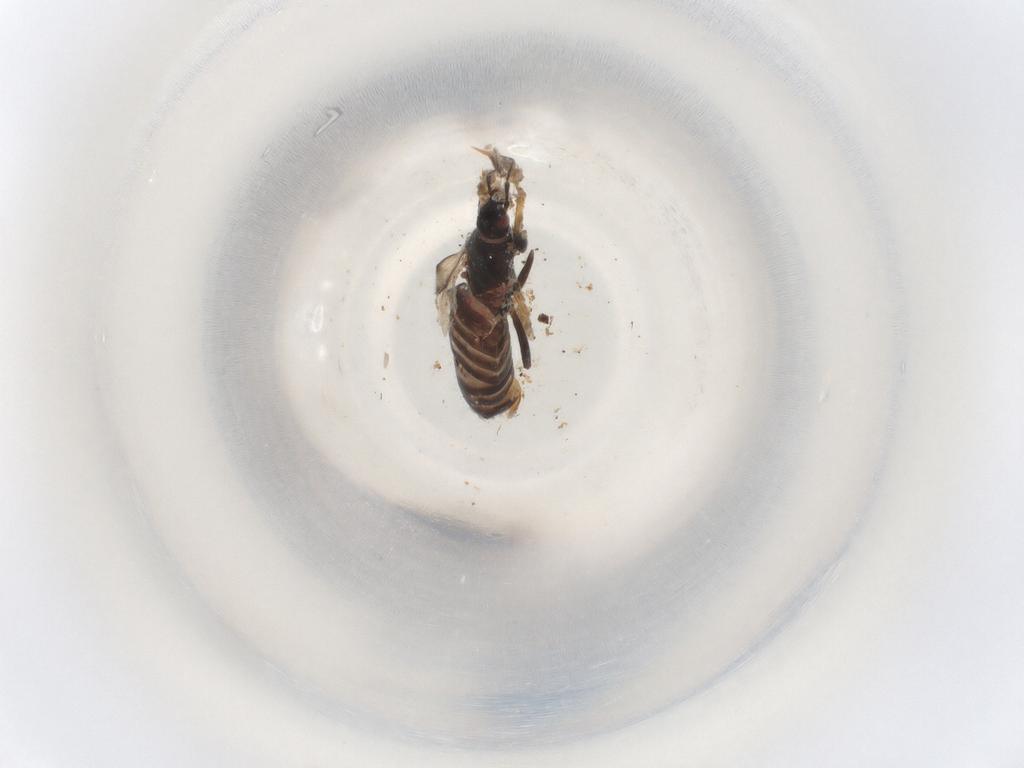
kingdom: Animalia
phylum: Arthropoda
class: Insecta
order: Hemiptera
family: Anthocoridae
